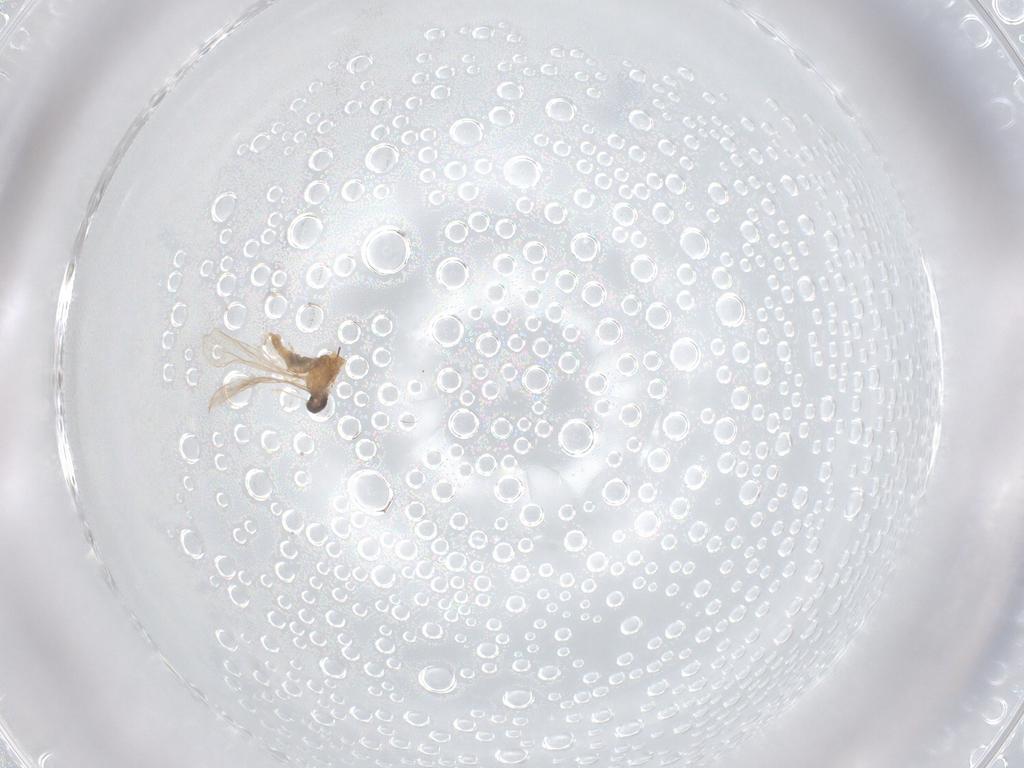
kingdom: Animalia
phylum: Arthropoda
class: Insecta
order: Diptera
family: Cecidomyiidae
